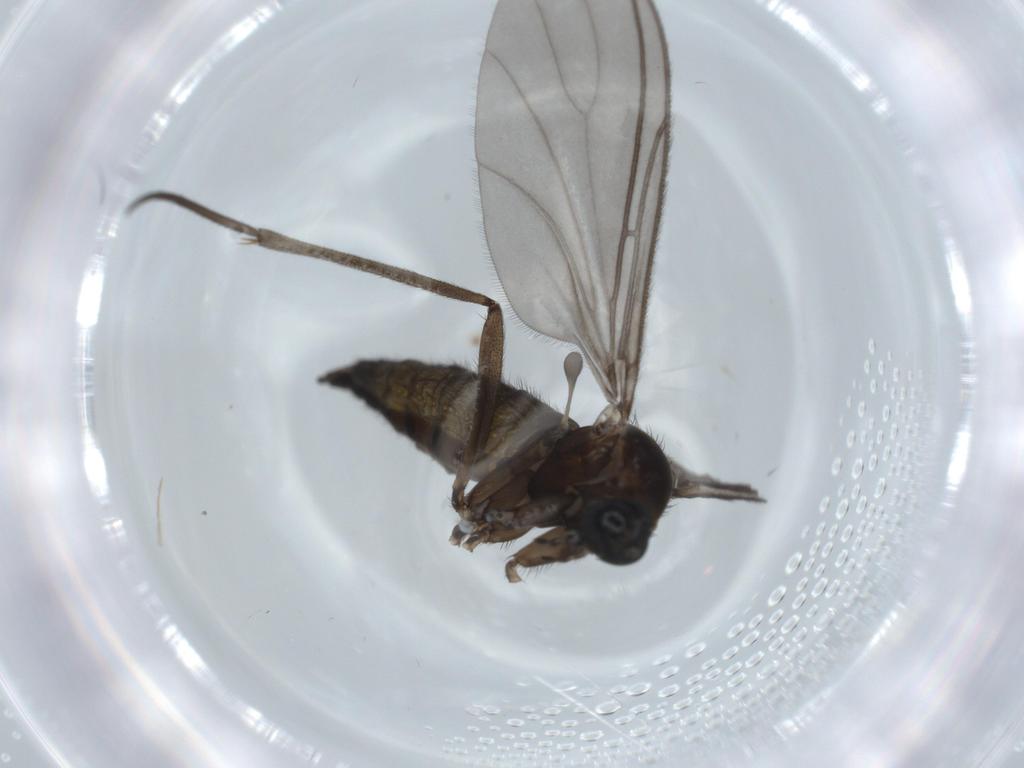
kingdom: Animalia
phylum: Arthropoda
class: Insecta
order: Diptera
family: Sciaridae
